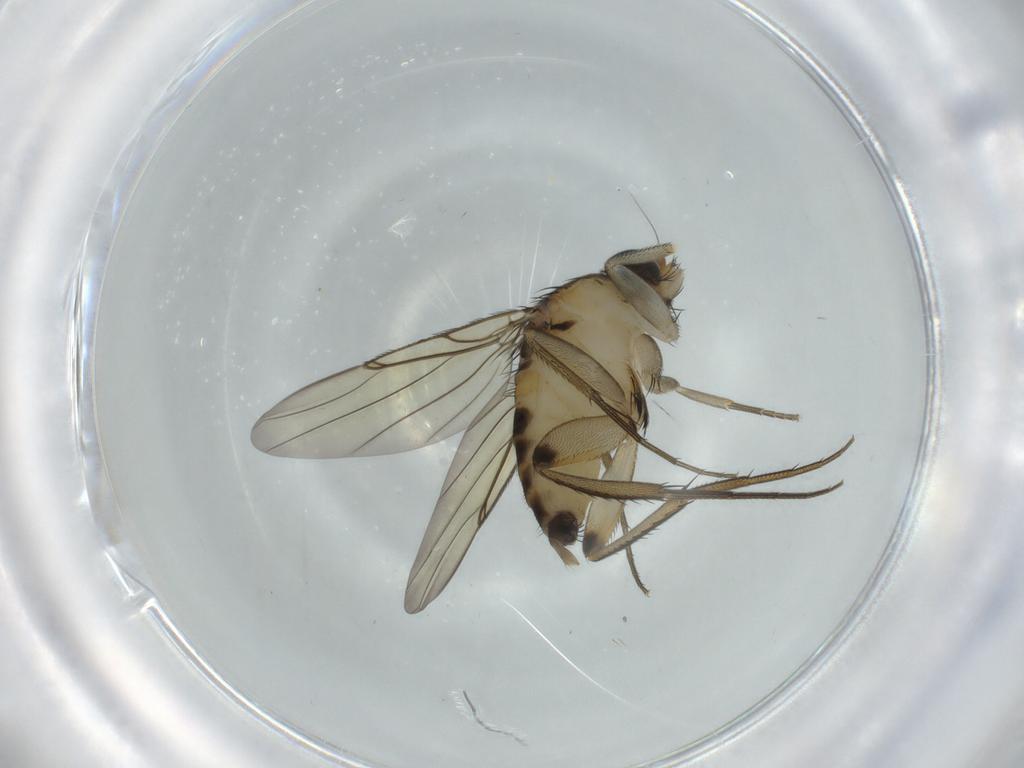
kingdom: Animalia
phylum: Arthropoda
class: Insecta
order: Diptera
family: Phoridae
